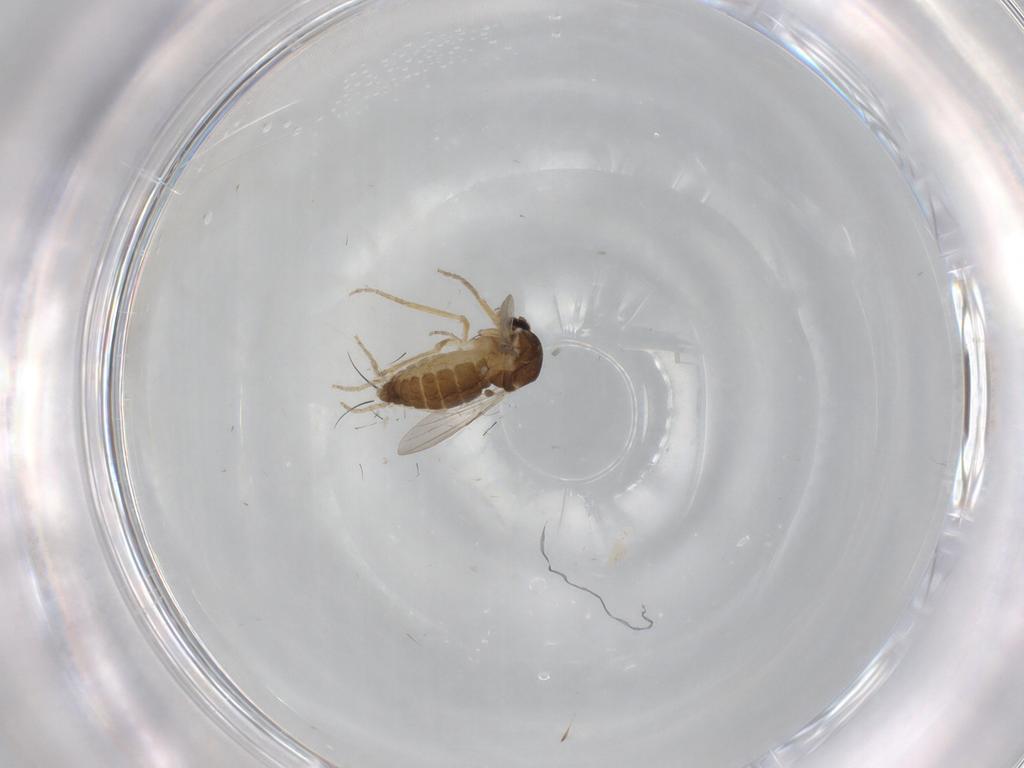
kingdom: Animalia
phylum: Arthropoda
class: Insecta
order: Diptera
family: Ceratopogonidae
